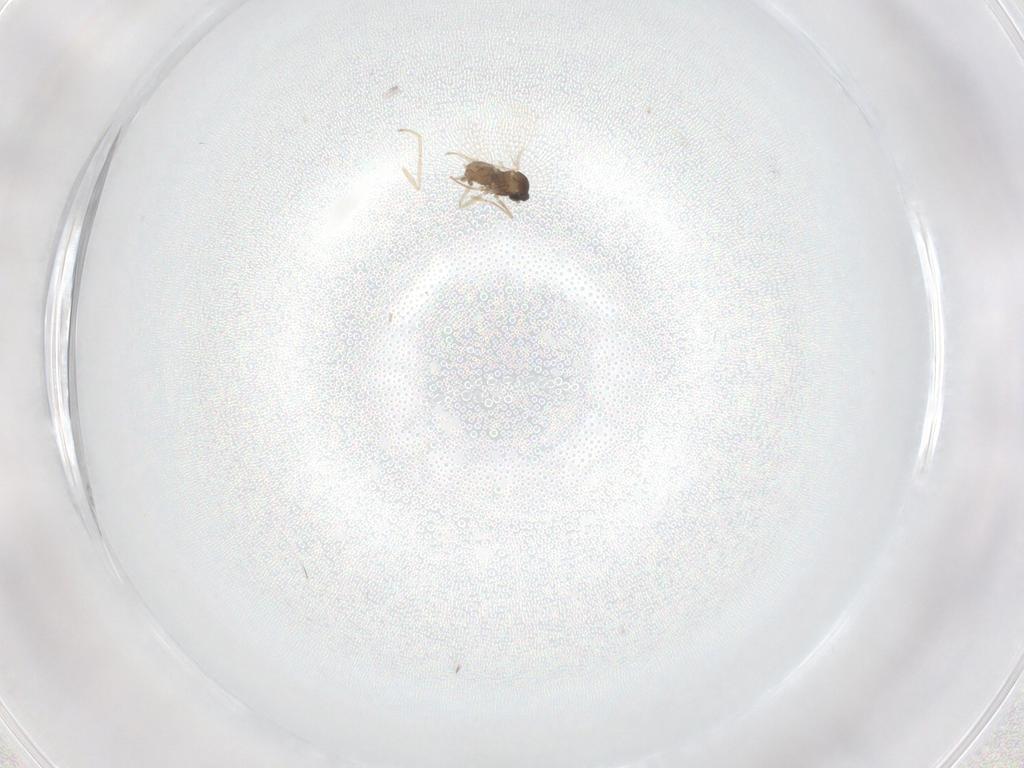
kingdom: Animalia
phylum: Arthropoda
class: Insecta
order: Diptera
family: Cecidomyiidae
